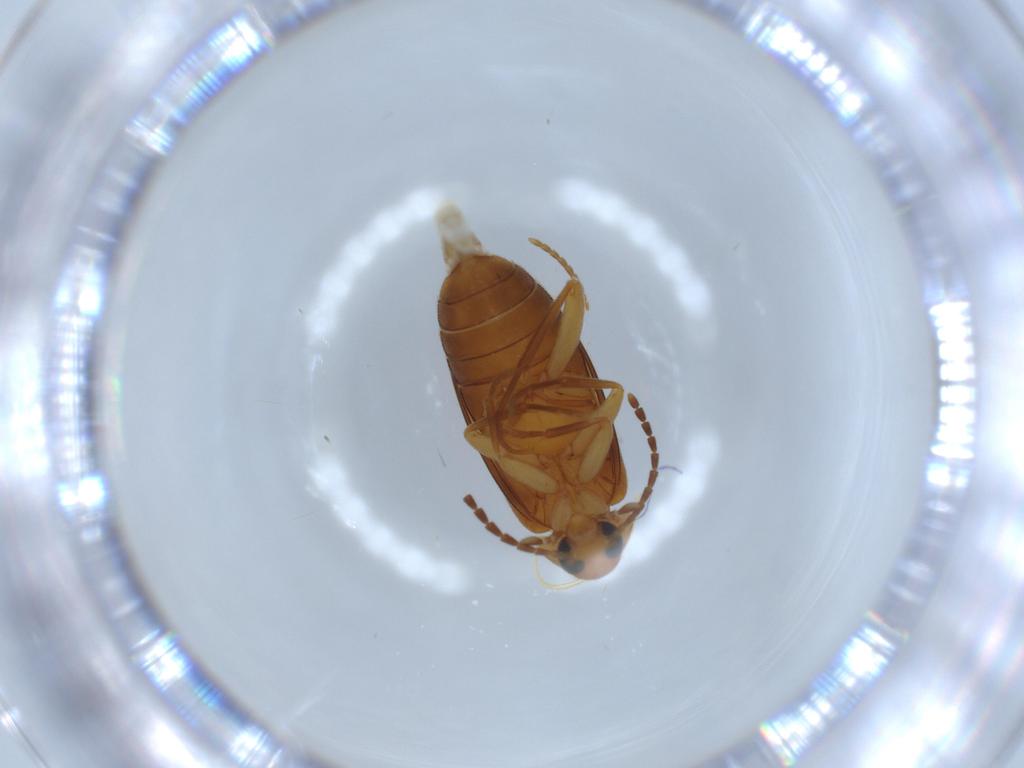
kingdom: Animalia
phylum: Arthropoda
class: Insecta
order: Coleoptera
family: Scraptiidae
